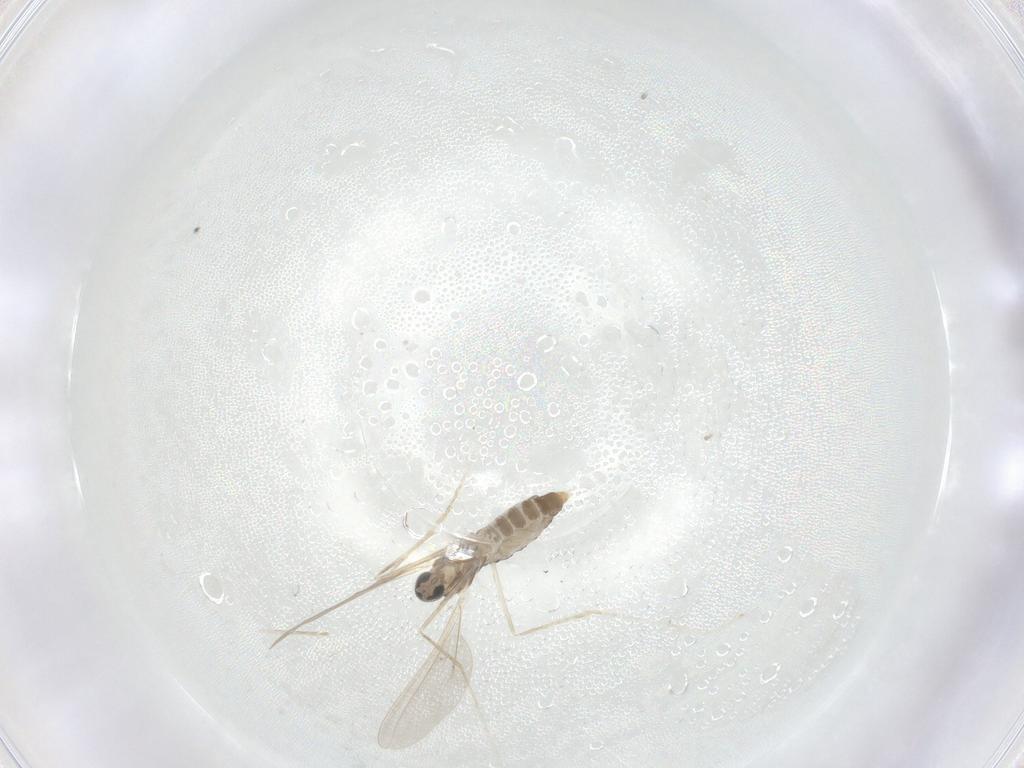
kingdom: Animalia
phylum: Arthropoda
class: Insecta
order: Diptera
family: Cecidomyiidae
